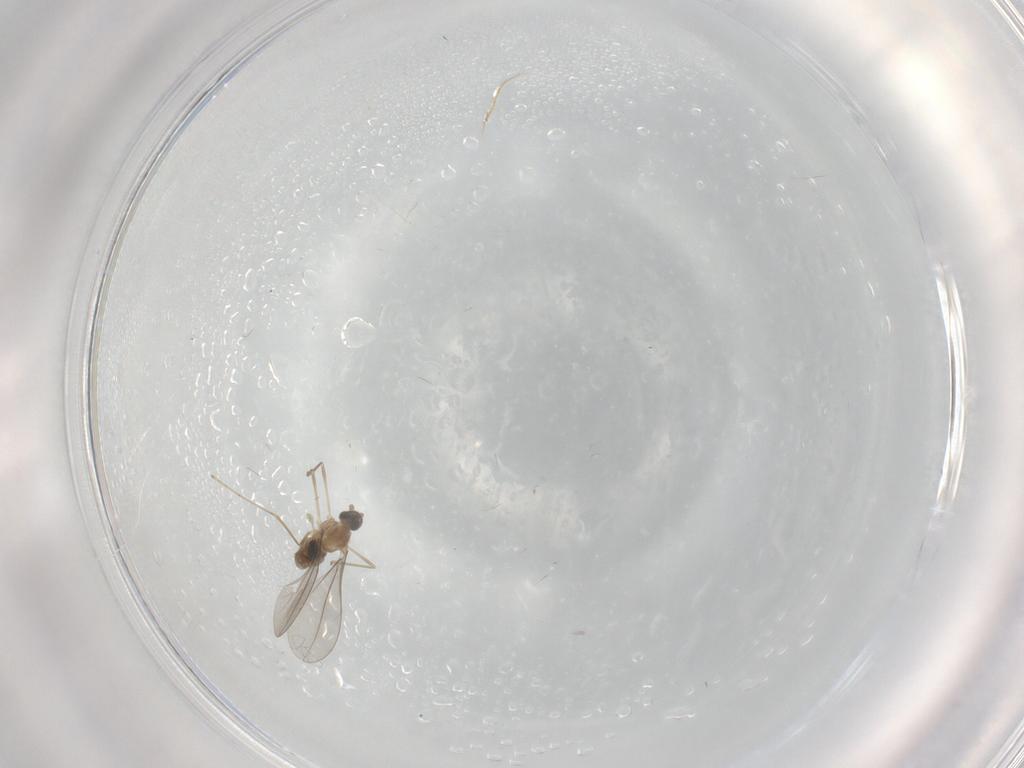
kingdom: Animalia
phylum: Arthropoda
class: Insecta
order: Diptera
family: Cecidomyiidae
